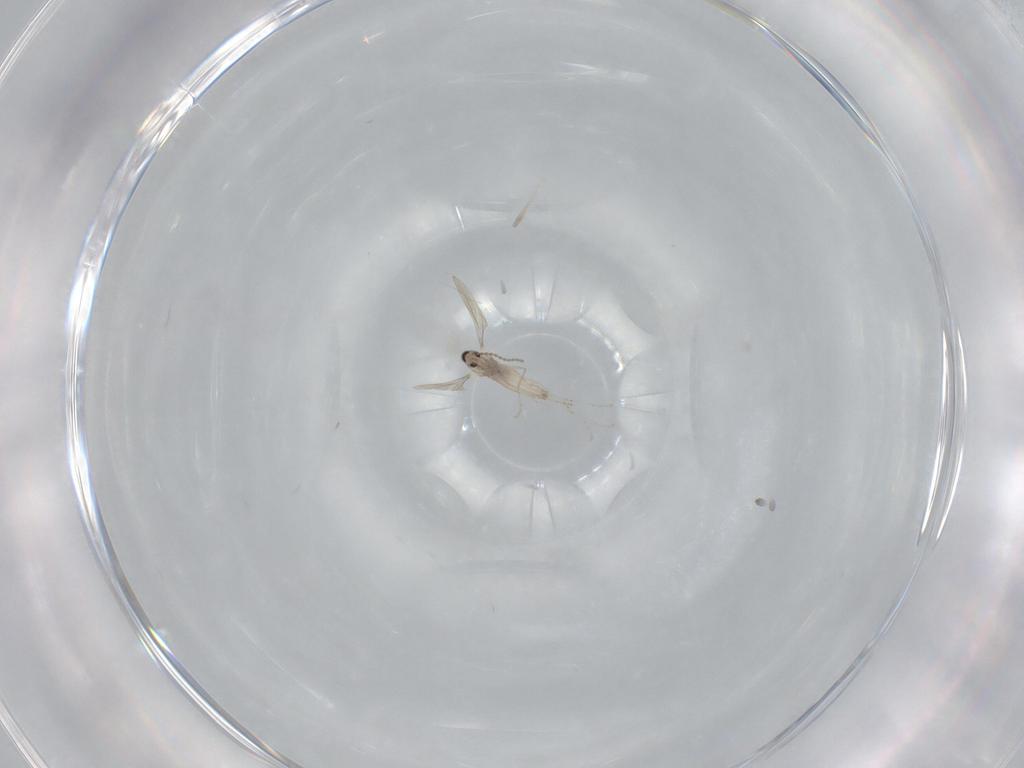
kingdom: Animalia
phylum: Arthropoda
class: Insecta
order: Diptera
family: Cecidomyiidae
